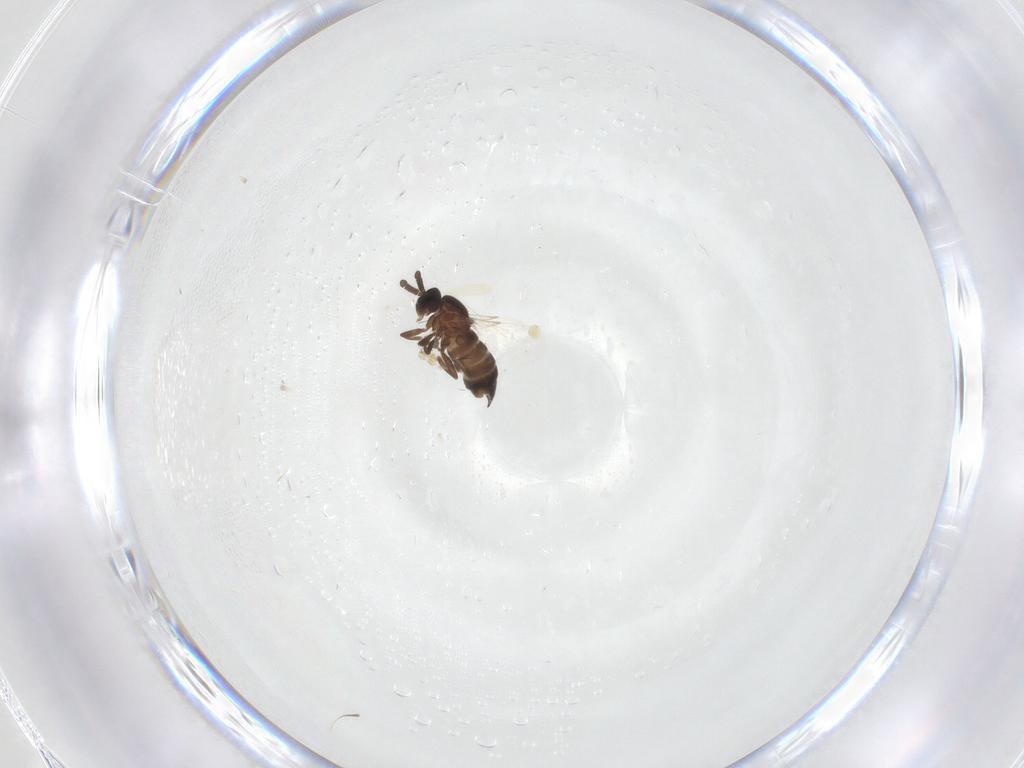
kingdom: Animalia
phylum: Arthropoda
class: Insecta
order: Diptera
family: Scatopsidae
